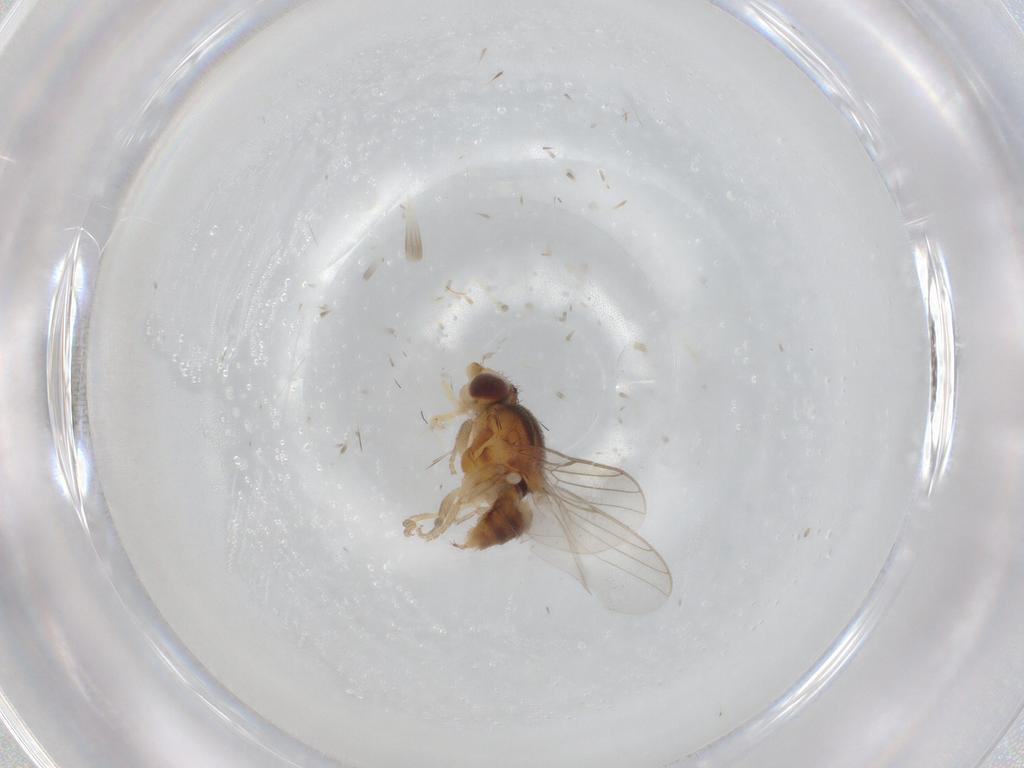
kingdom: Animalia
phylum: Arthropoda
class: Insecta
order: Diptera
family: Chloropidae
